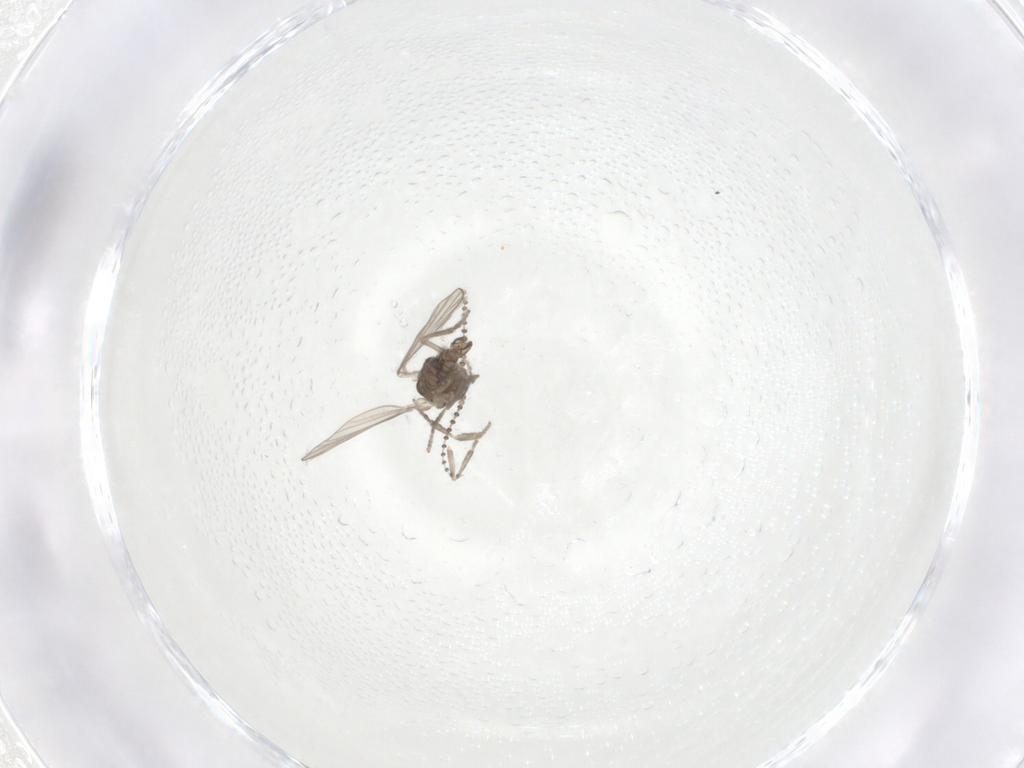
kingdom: Animalia
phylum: Arthropoda
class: Insecta
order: Diptera
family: Psychodidae
